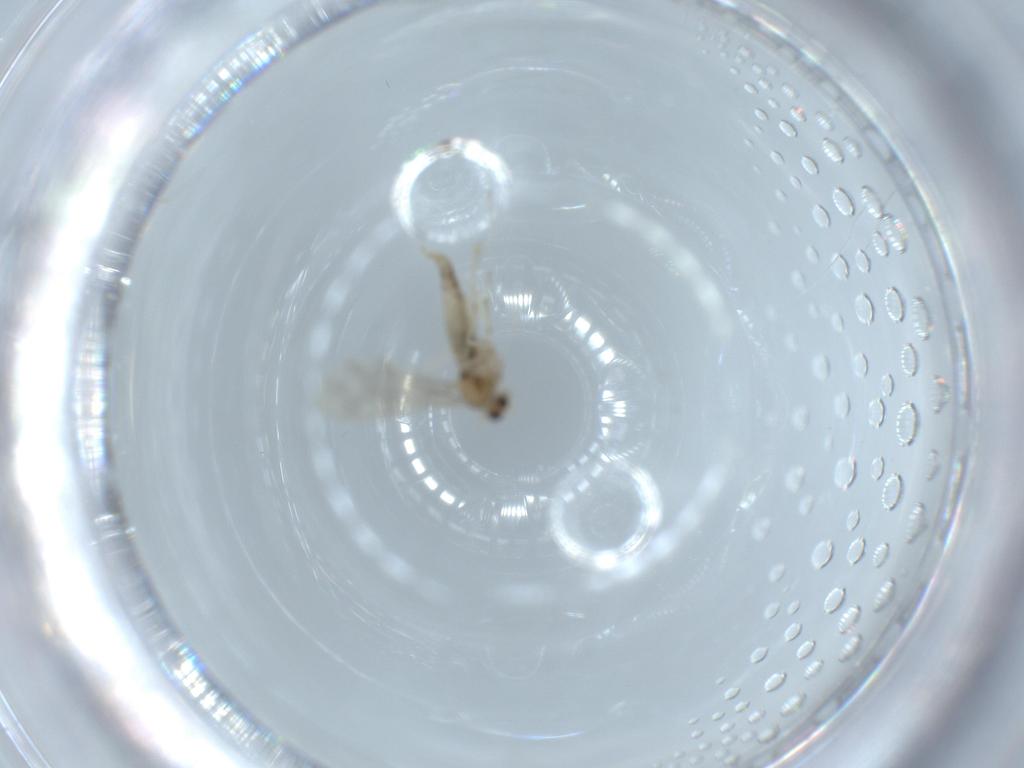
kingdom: Animalia
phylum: Arthropoda
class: Insecta
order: Diptera
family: Cecidomyiidae
